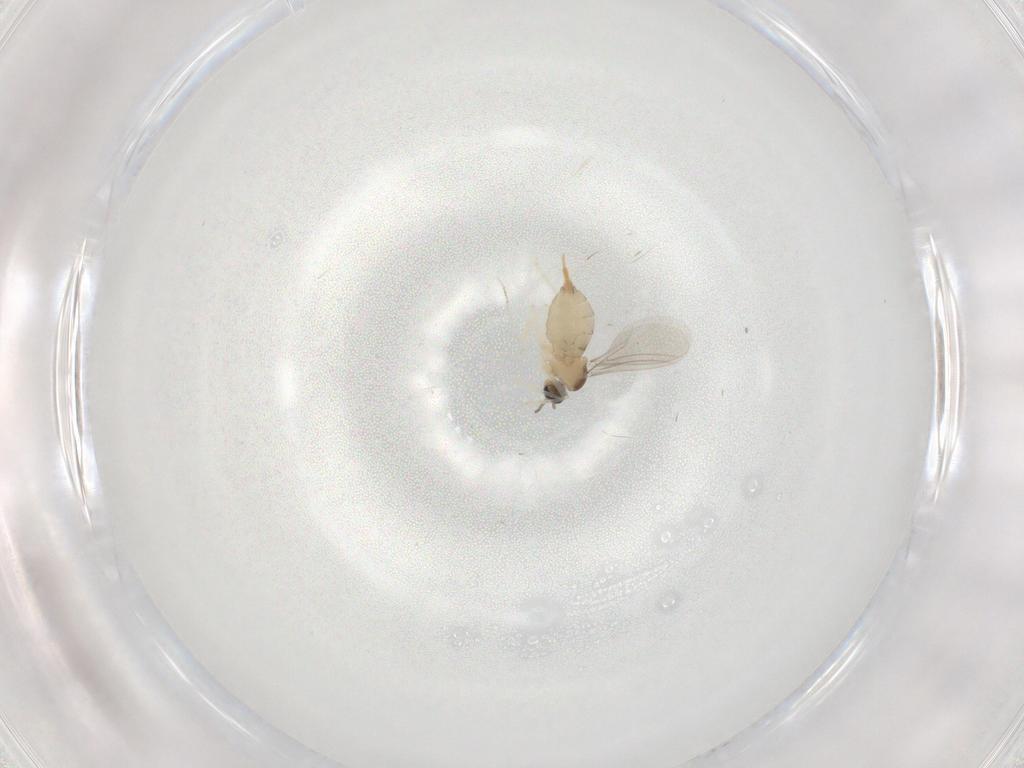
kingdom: Animalia
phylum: Arthropoda
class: Insecta
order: Diptera
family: Cecidomyiidae
